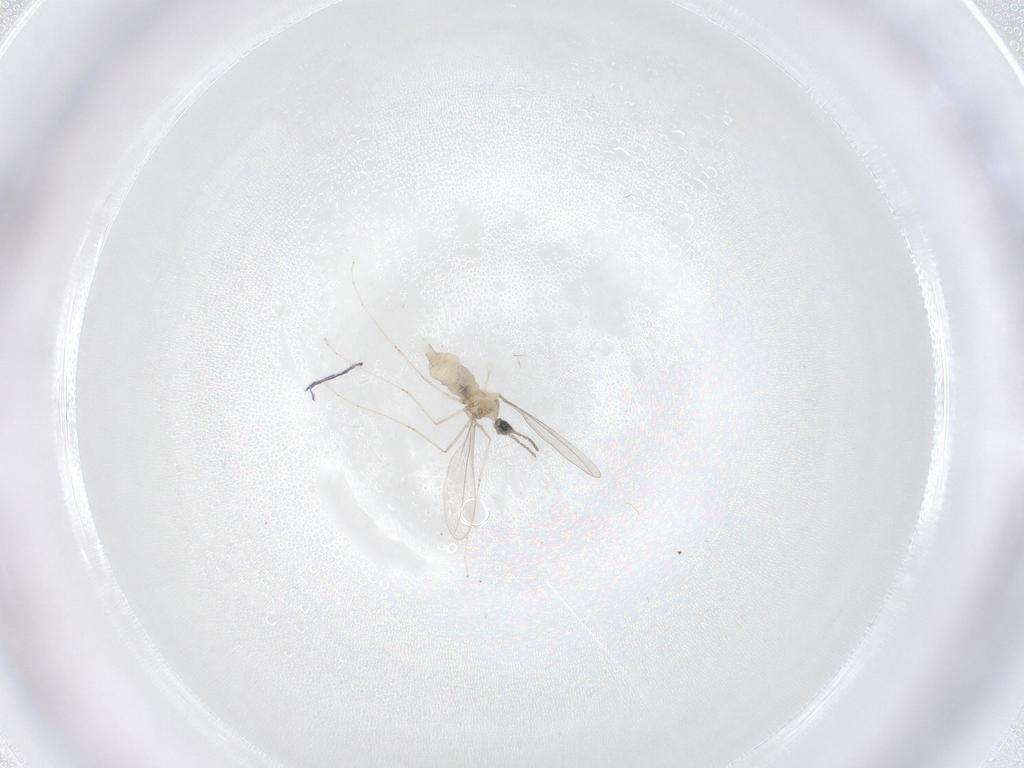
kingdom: Animalia
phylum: Arthropoda
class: Insecta
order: Diptera
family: Cecidomyiidae
